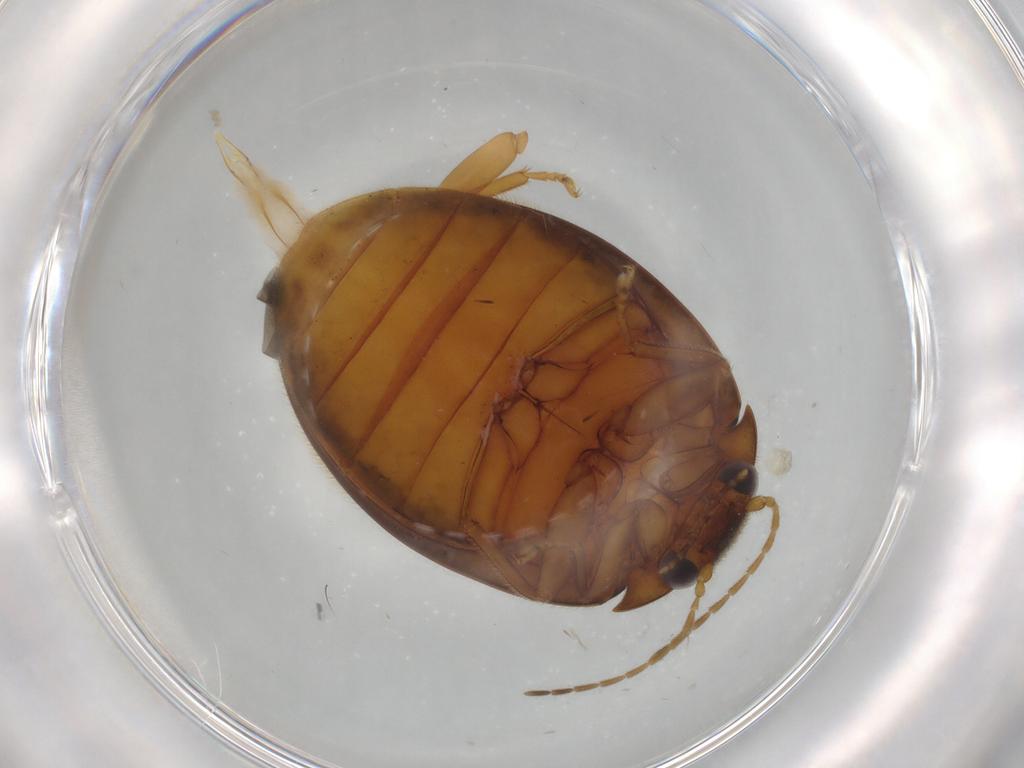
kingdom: Animalia
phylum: Arthropoda
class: Insecta
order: Coleoptera
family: Scirtidae
